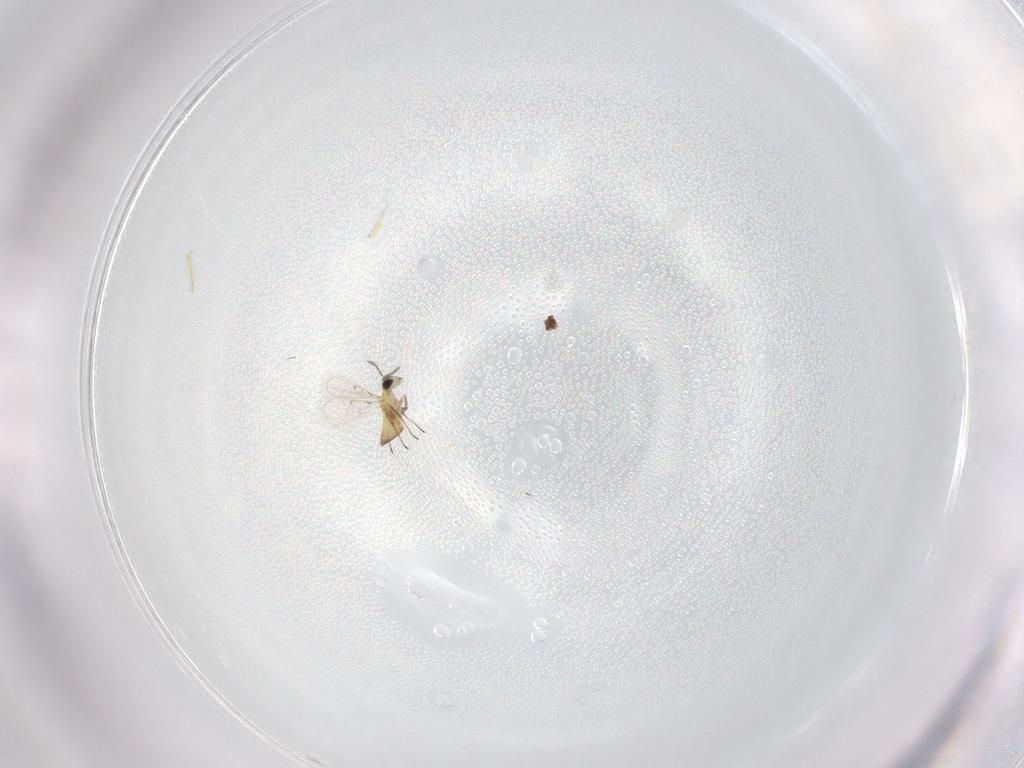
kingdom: Animalia
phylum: Arthropoda
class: Insecta
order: Hymenoptera
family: Trichogrammatidae
